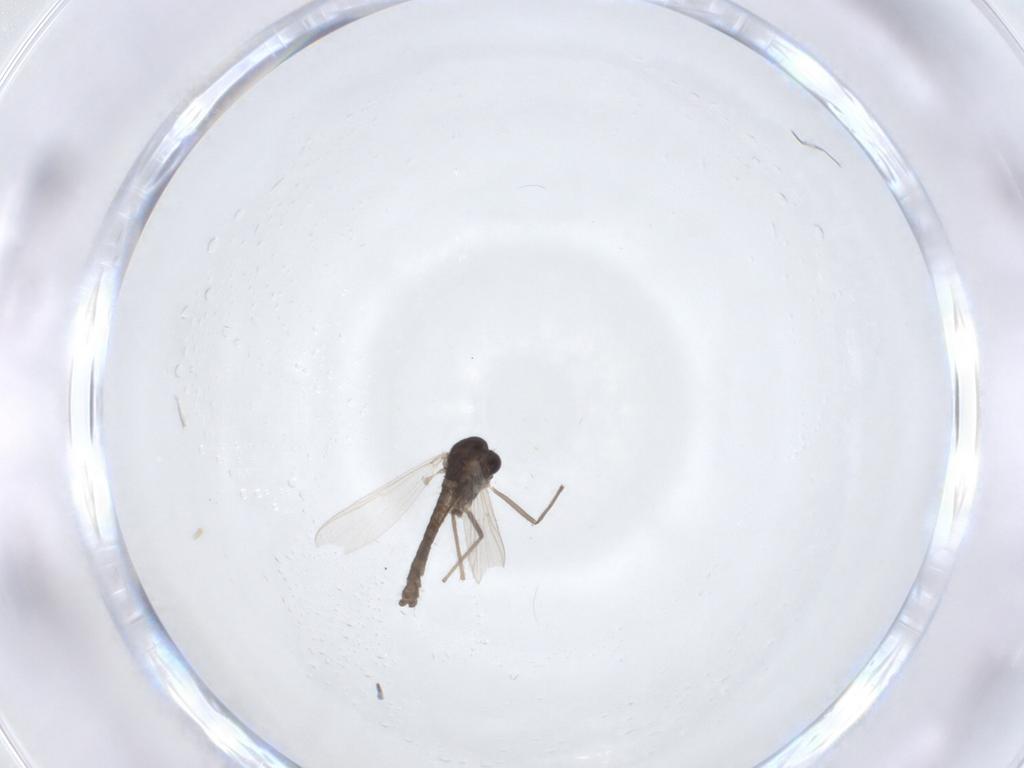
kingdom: Animalia
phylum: Arthropoda
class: Insecta
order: Diptera
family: Chironomidae
